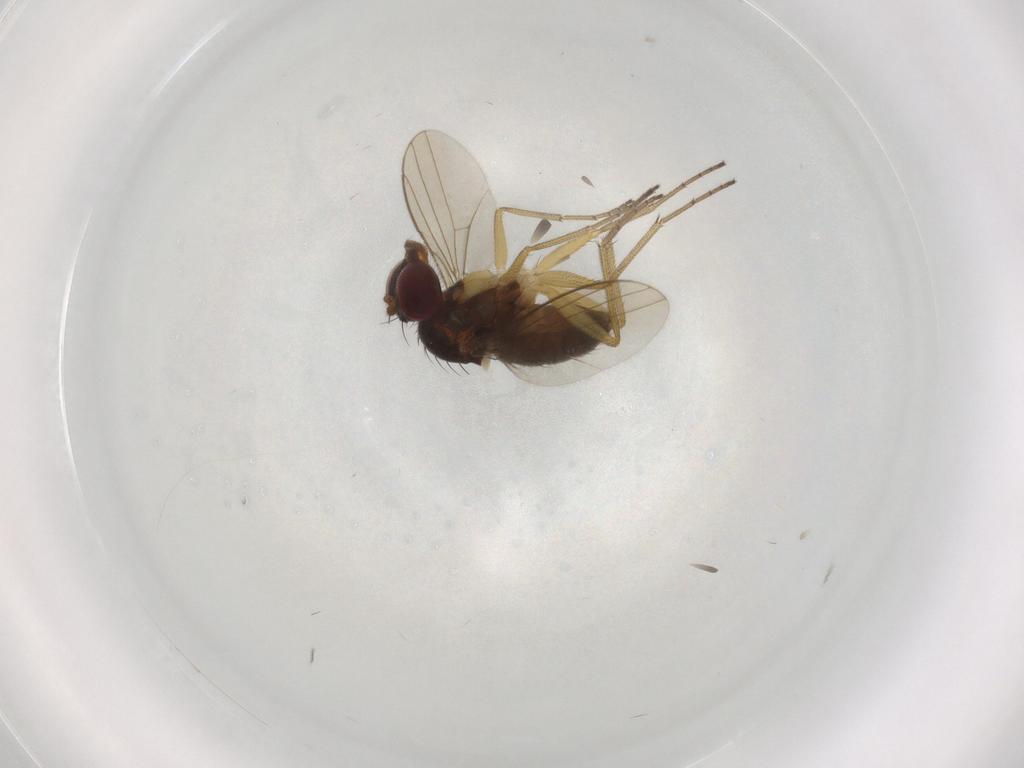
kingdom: Animalia
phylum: Arthropoda
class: Insecta
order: Diptera
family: Dolichopodidae
